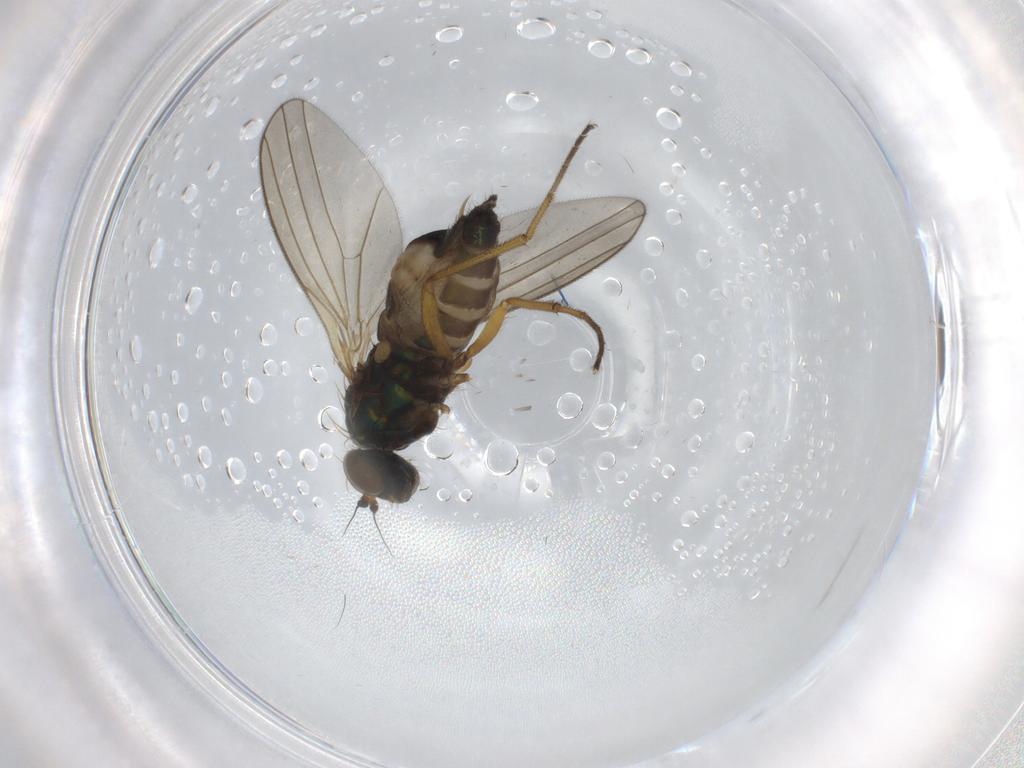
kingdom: Animalia
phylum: Arthropoda
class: Insecta
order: Diptera
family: Dolichopodidae
